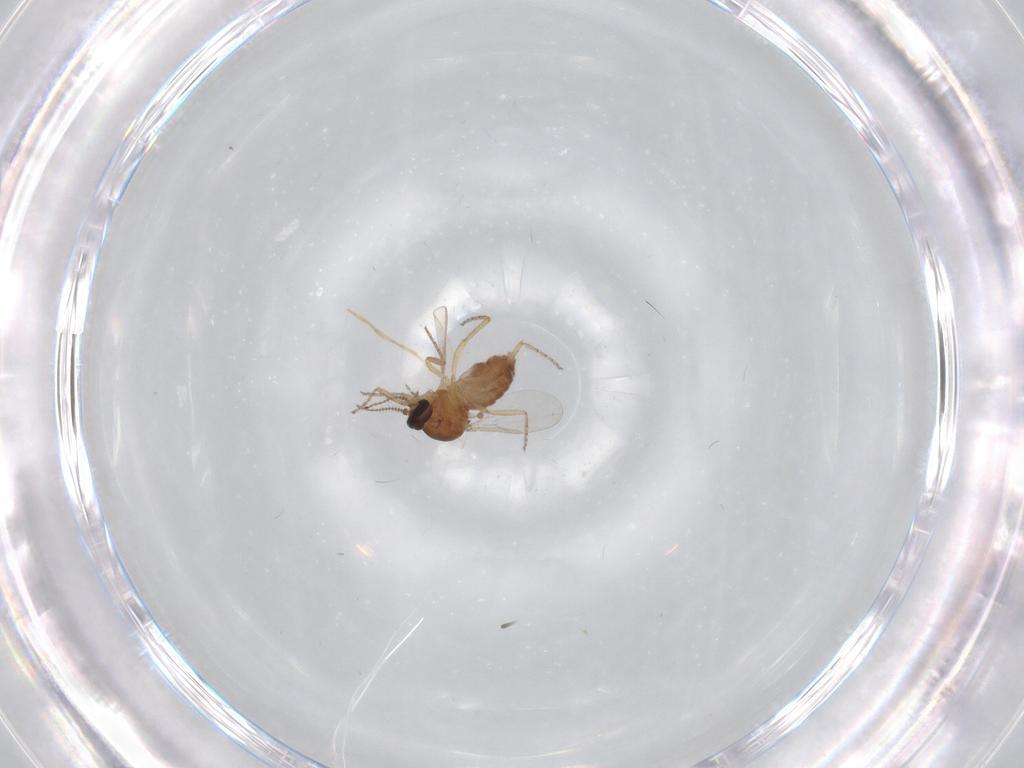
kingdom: Animalia
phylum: Arthropoda
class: Insecta
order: Diptera
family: Ceratopogonidae
